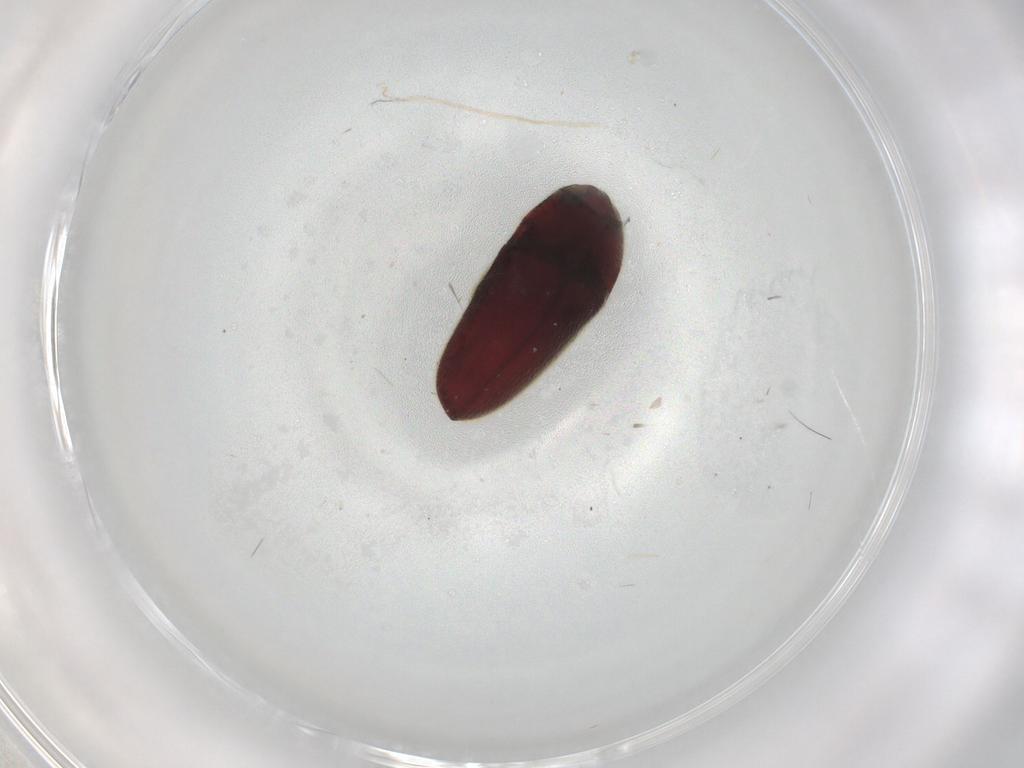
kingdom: Animalia
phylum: Arthropoda
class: Insecta
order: Coleoptera
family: Throscidae
